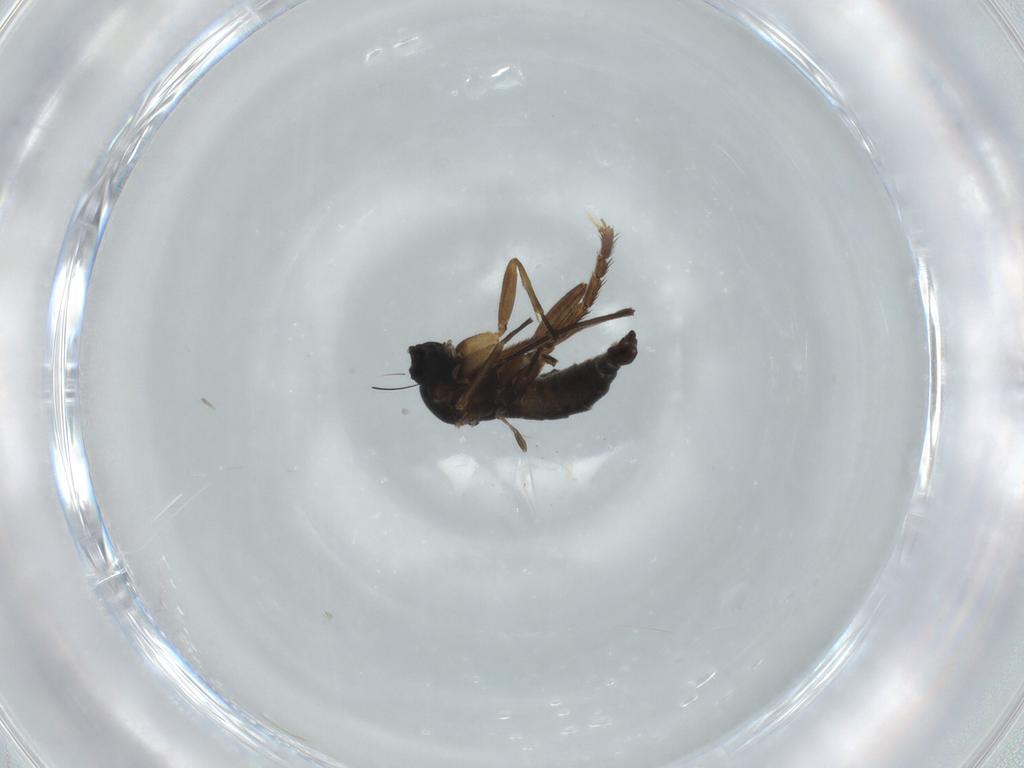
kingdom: Animalia
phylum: Arthropoda
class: Insecta
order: Diptera
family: Sciaridae
